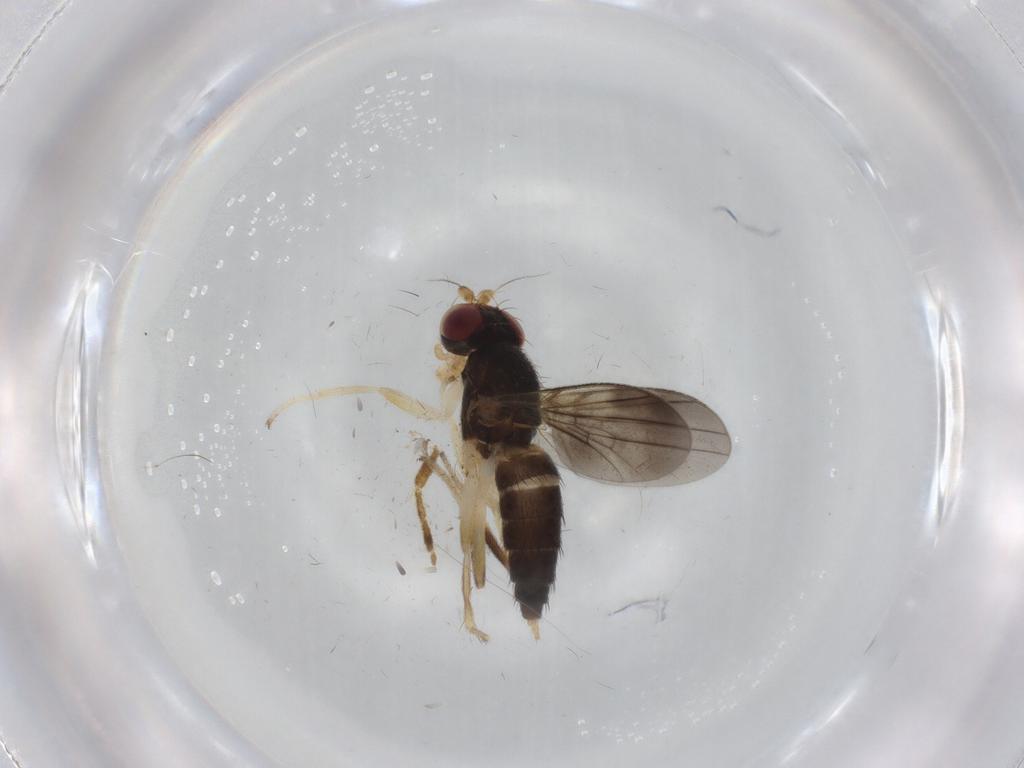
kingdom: Animalia
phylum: Arthropoda
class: Insecta
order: Diptera
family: Clusiidae
